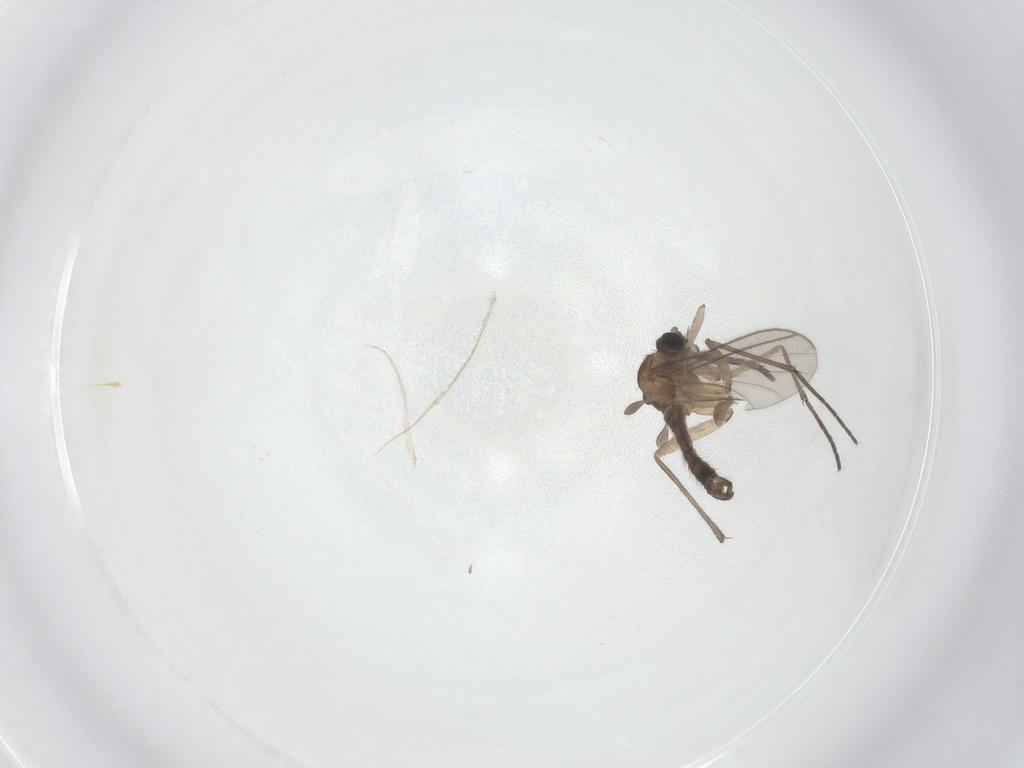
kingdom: Animalia
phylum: Arthropoda
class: Insecta
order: Diptera
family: Sciaridae
